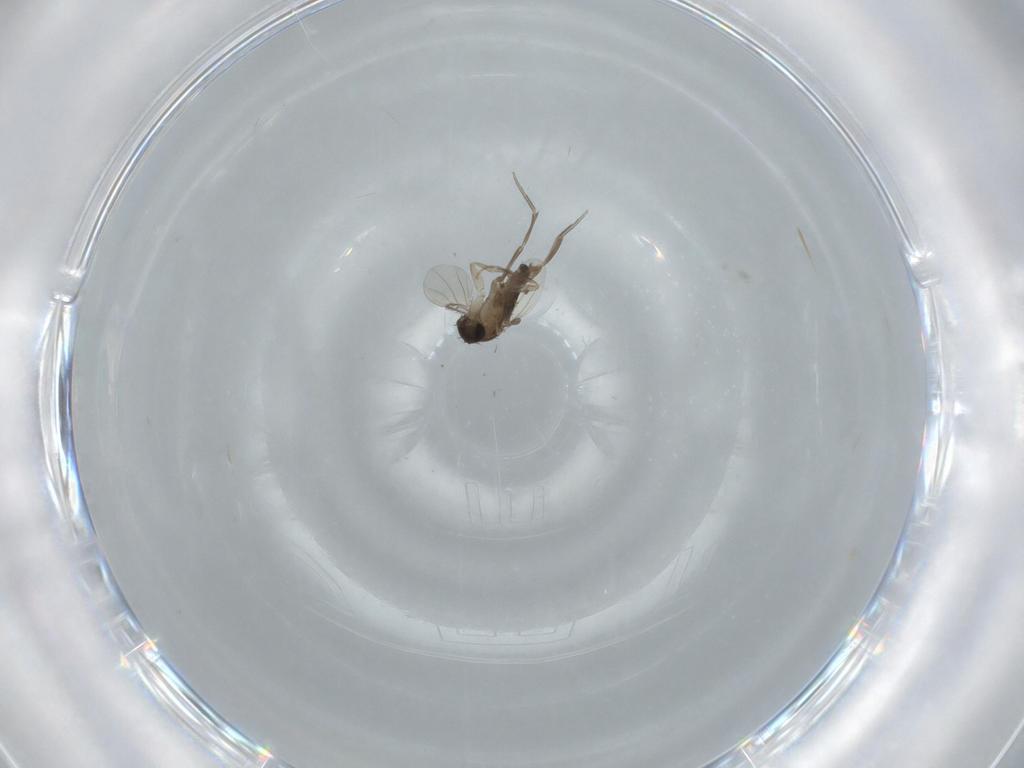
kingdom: Animalia
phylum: Arthropoda
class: Insecta
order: Diptera
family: Phoridae
